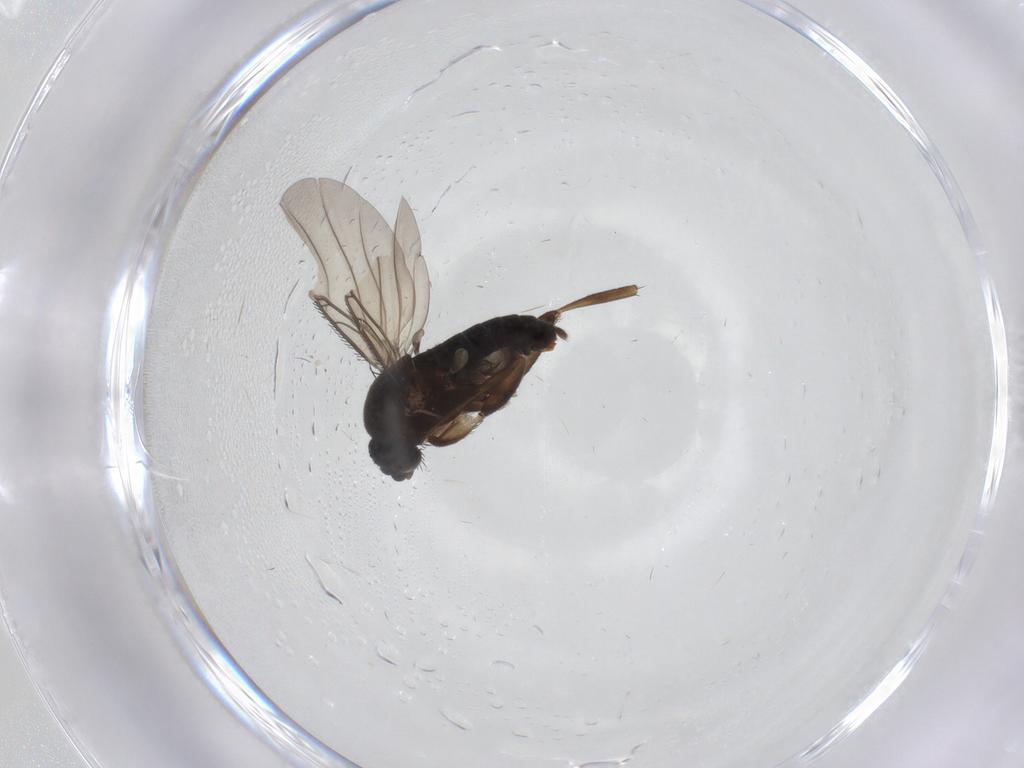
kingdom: Animalia
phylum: Arthropoda
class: Insecta
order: Diptera
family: Phoridae
